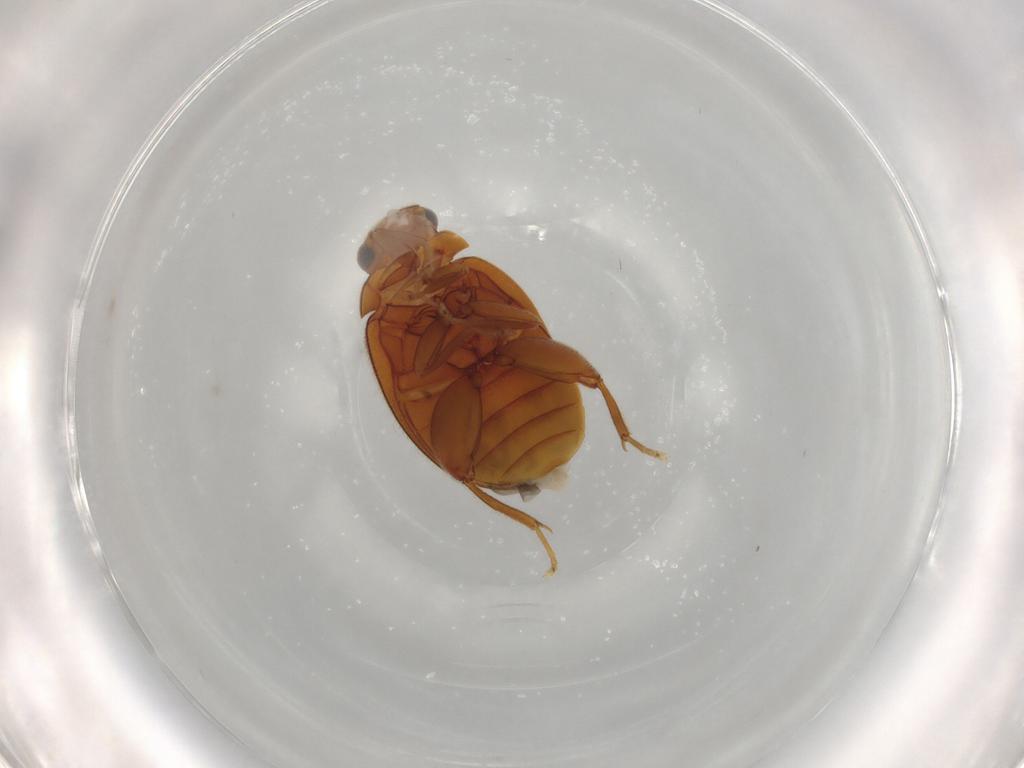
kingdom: Animalia
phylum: Arthropoda
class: Insecta
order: Coleoptera
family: Scirtidae
